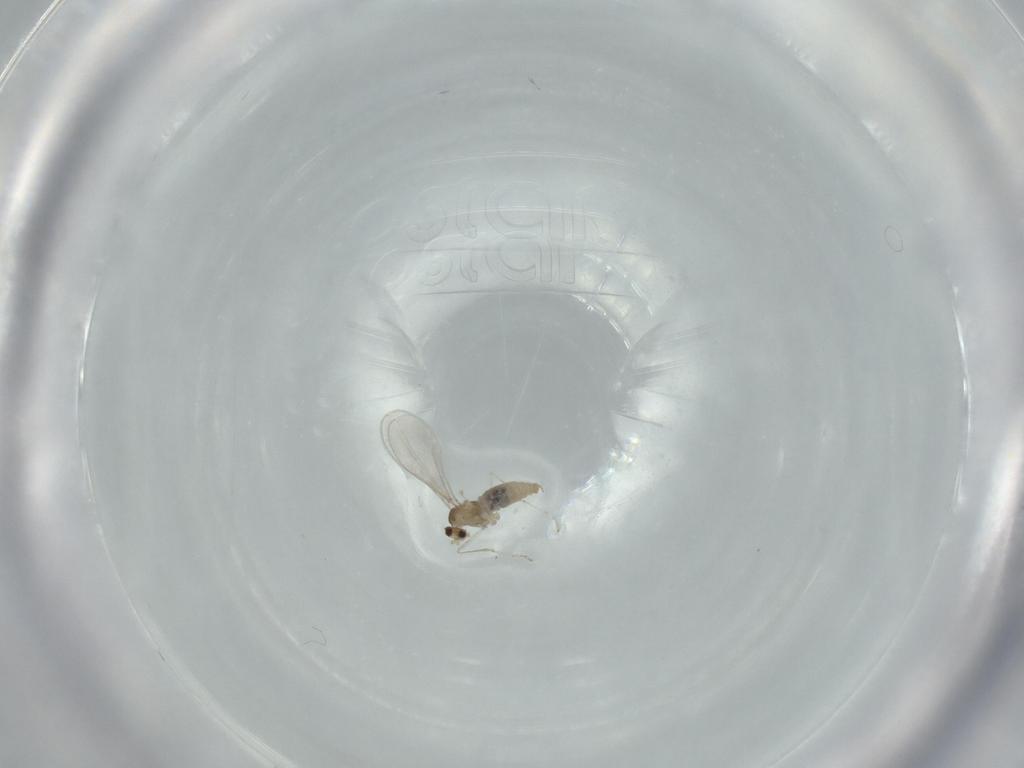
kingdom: Animalia
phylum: Arthropoda
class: Insecta
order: Diptera
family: Cecidomyiidae
